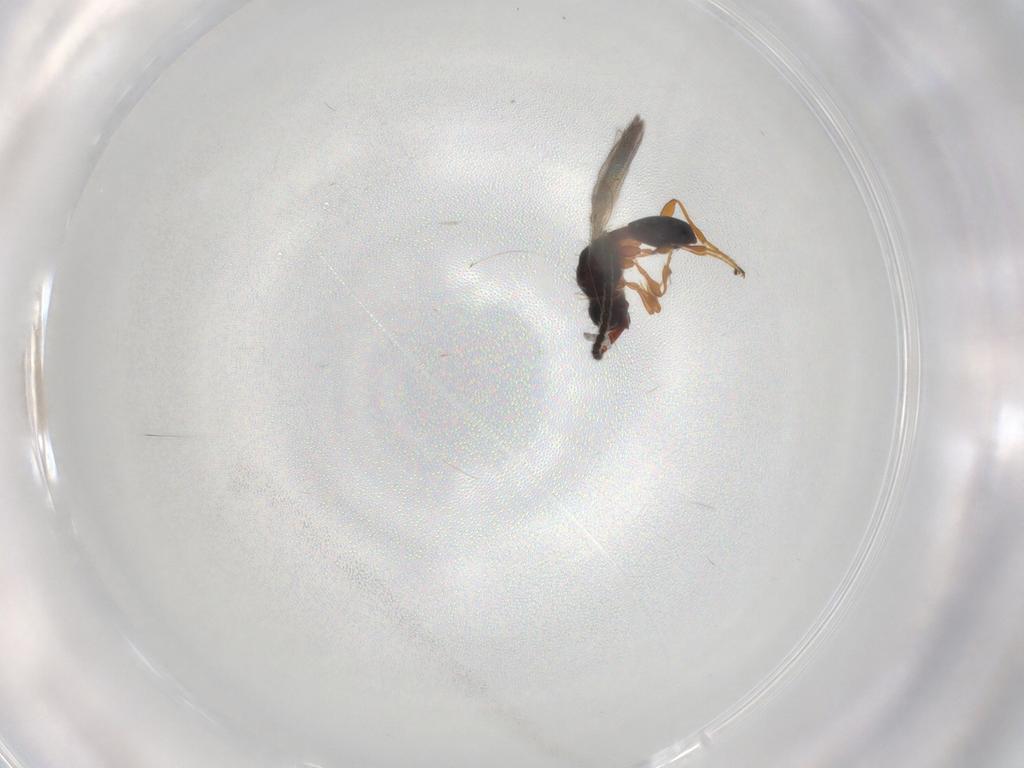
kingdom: Animalia
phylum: Arthropoda
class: Insecta
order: Hymenoptera
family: Diapriidae
